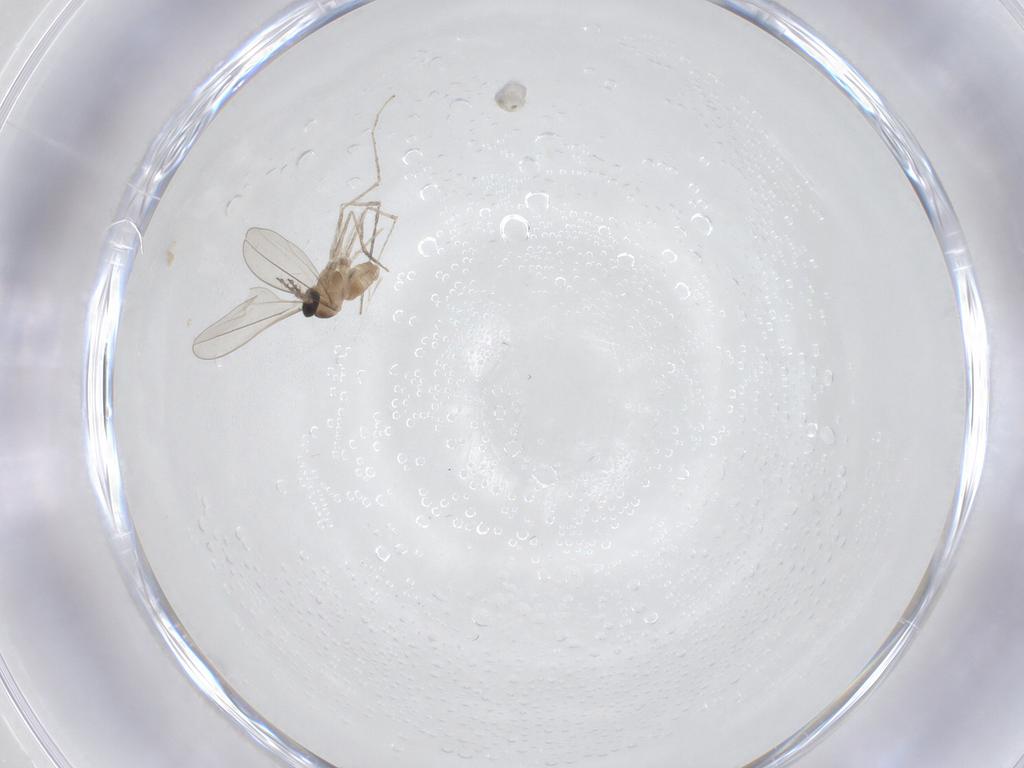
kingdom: Animalia
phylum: Arthropoda
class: Insecta
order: Diptera
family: Cecidomyiidae
